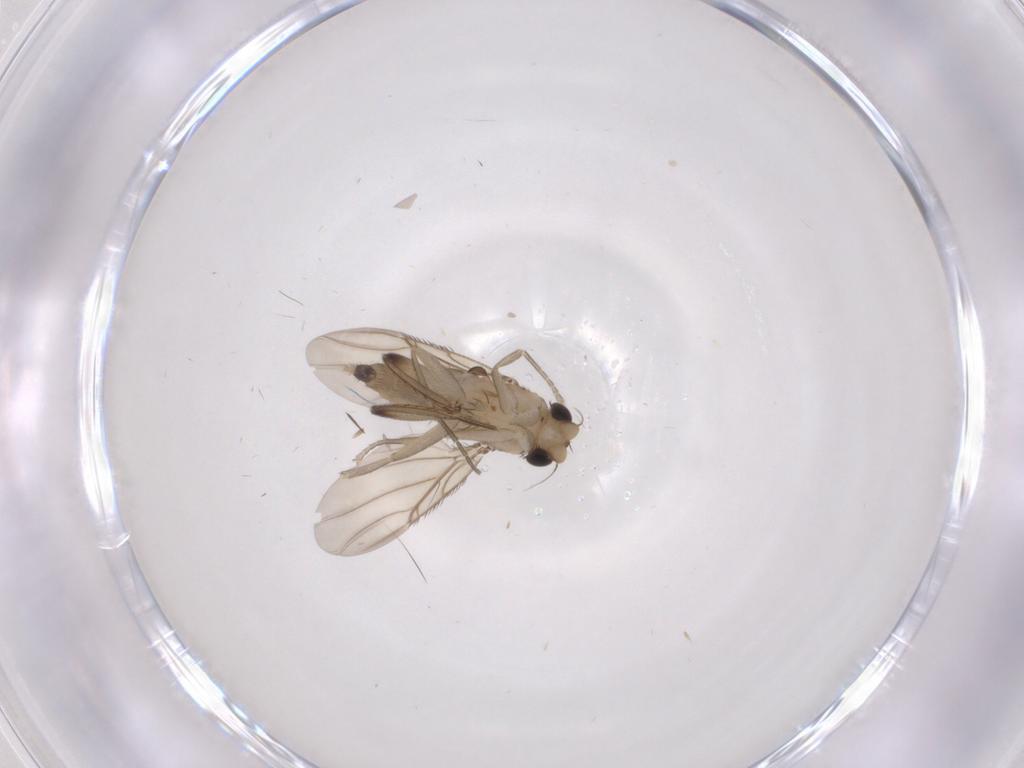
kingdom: Animalia
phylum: Arthropoda
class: Insecta
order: Diptera
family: Cecidomyiidae
